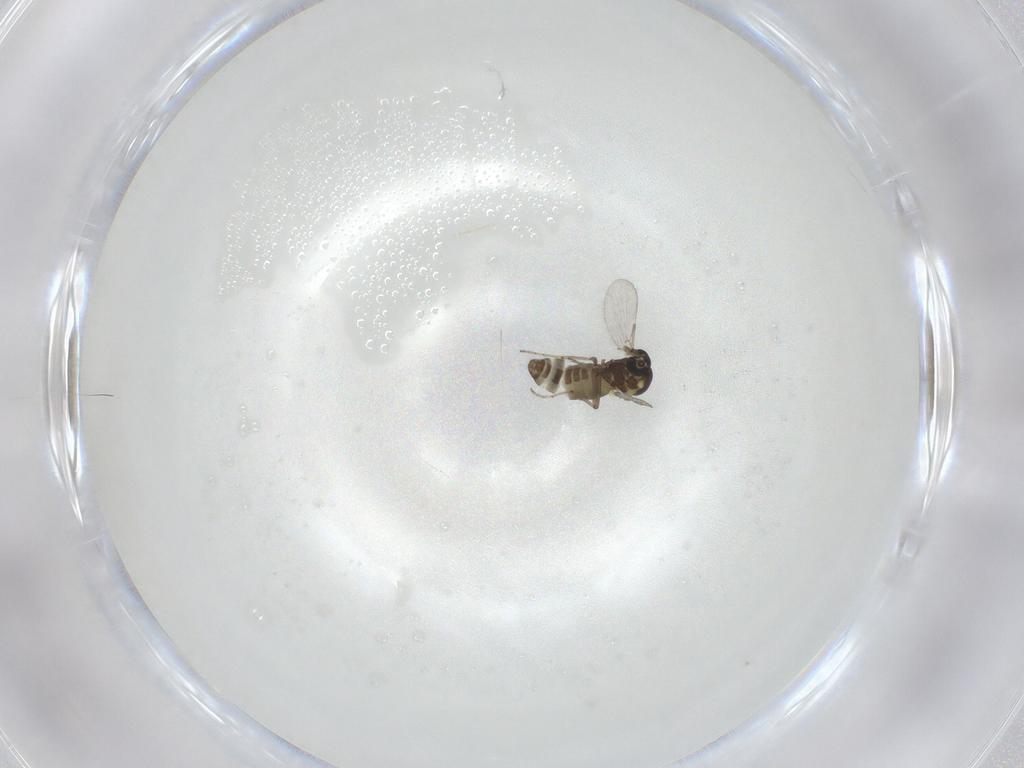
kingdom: Animalia
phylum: Arthropoda
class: Insecta
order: Diptera
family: Ceratopogonidae
